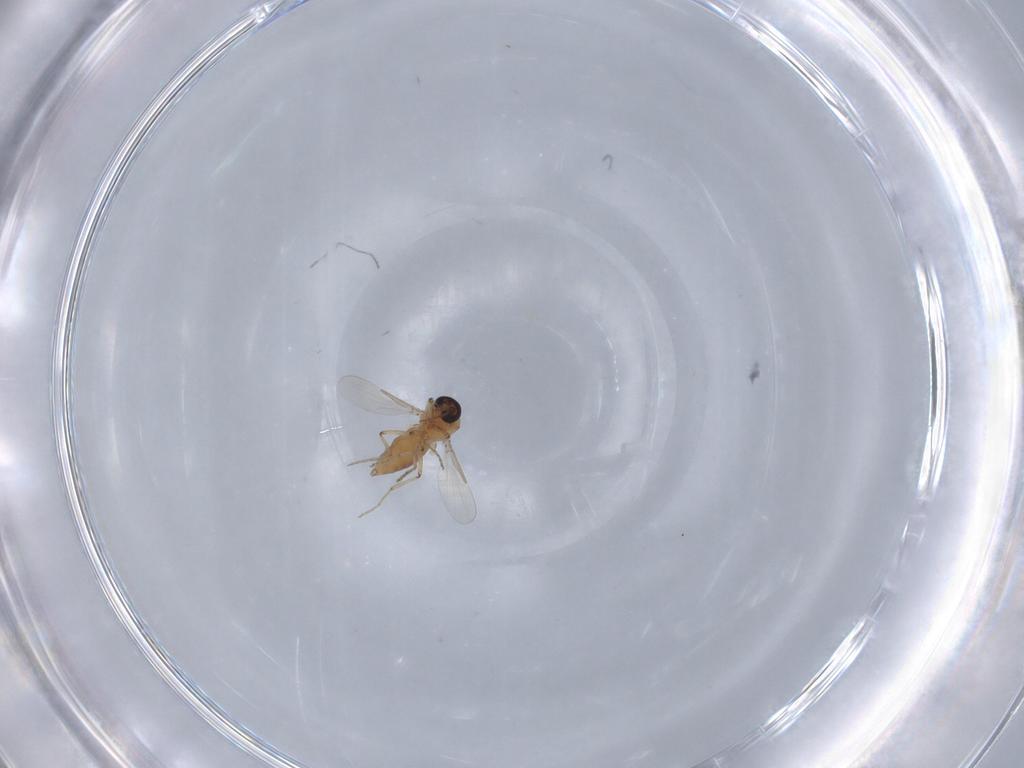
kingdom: Animalia
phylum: Arthropoda
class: Insecta
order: Diptera
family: Ceratopogonidae
